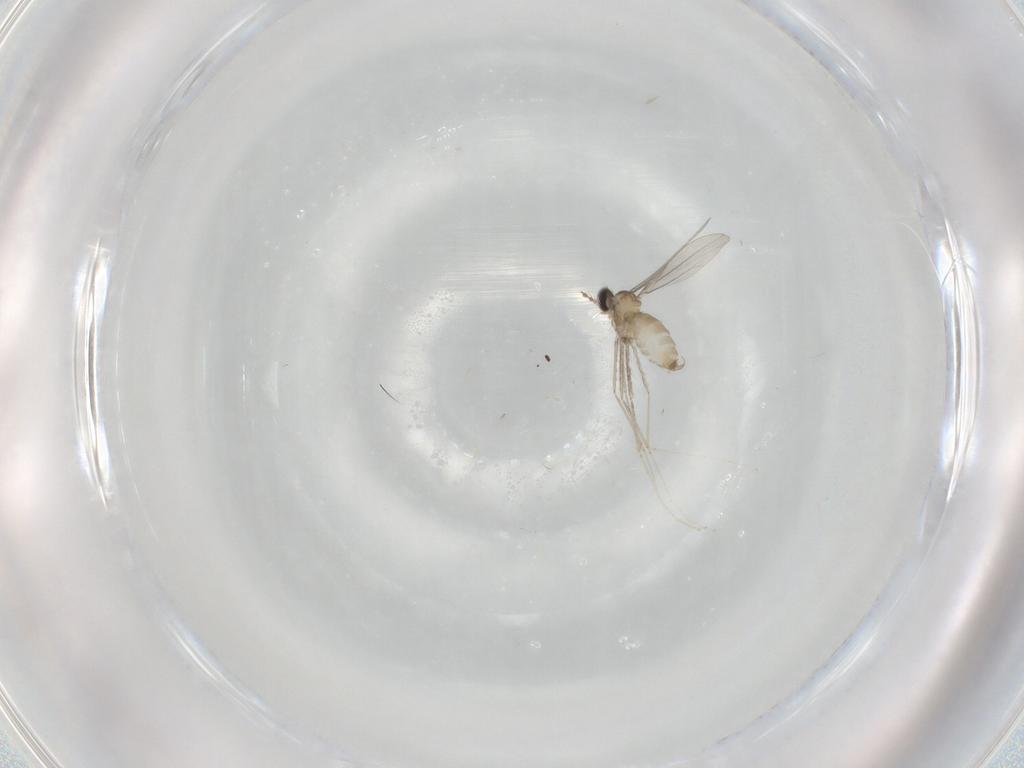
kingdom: Animalia
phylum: Arthropoda
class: Insecta
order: Diptera
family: Cecidomyiidae
